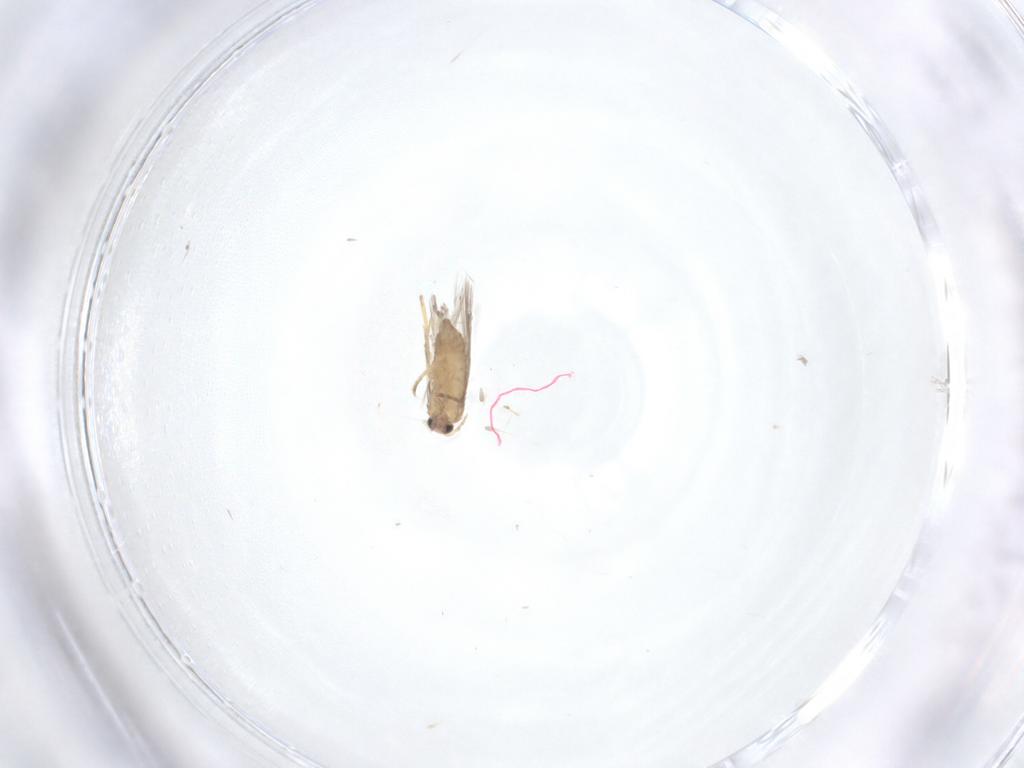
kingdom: Animalia
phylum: Arthropoda
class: Insecta
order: Lepidoptera
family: Nepticulidae
